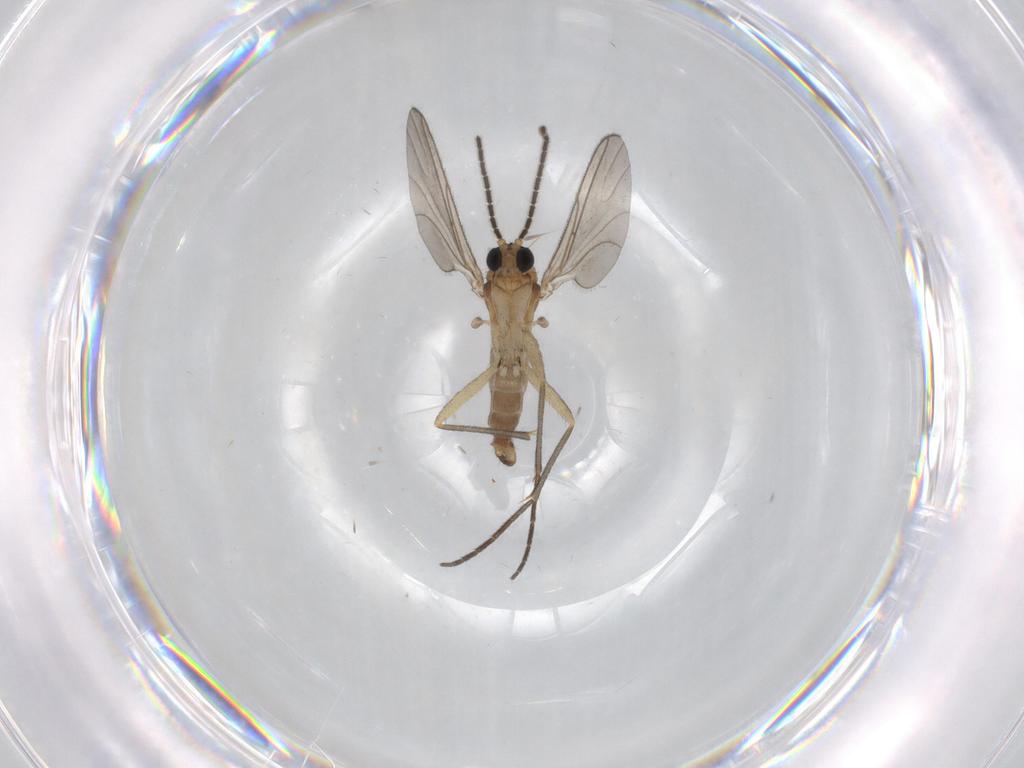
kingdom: Animalia
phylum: Arthropoda
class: Insecta
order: Diptera
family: Sciaridae
